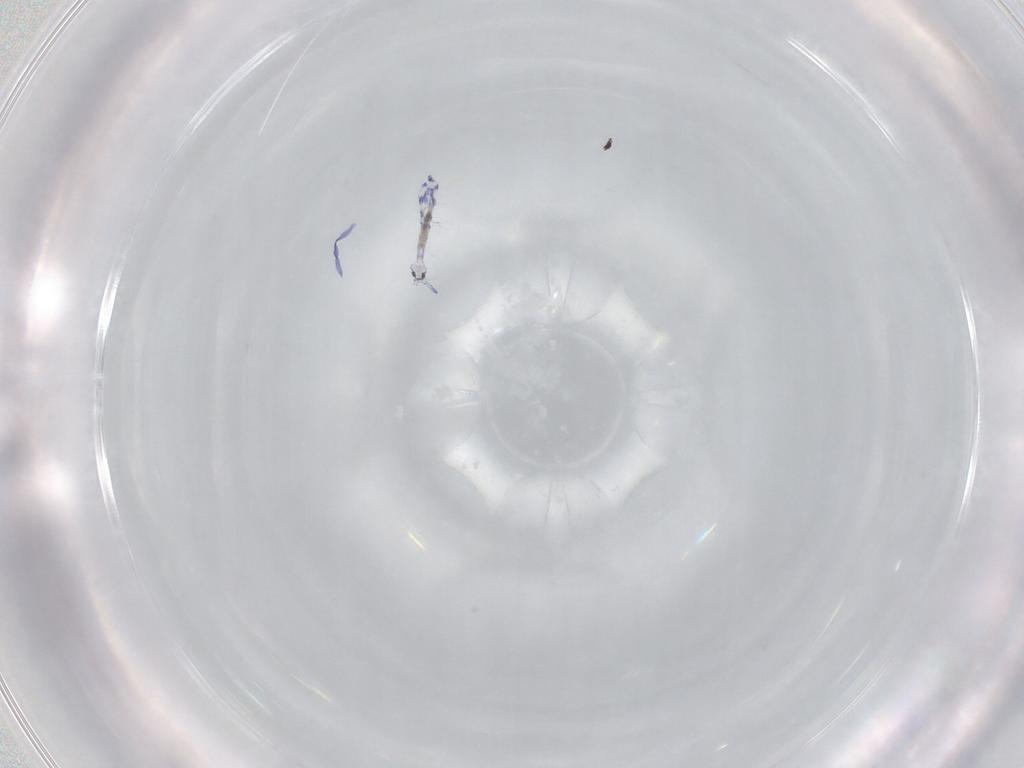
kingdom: Animalia
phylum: Arthropoda
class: Collembola
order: Entomobryomorpha
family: Entomobryidae
